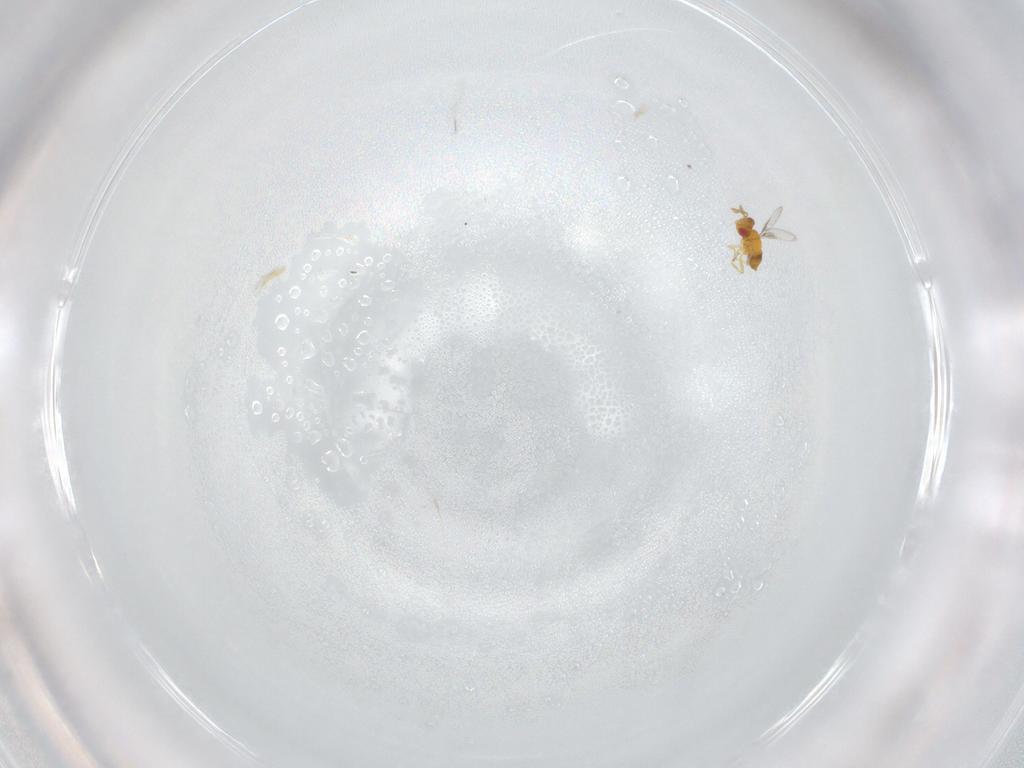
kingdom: Animalia
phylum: Arthropoda
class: Insecta
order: Hymenoptera
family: Trichogrammatidae
